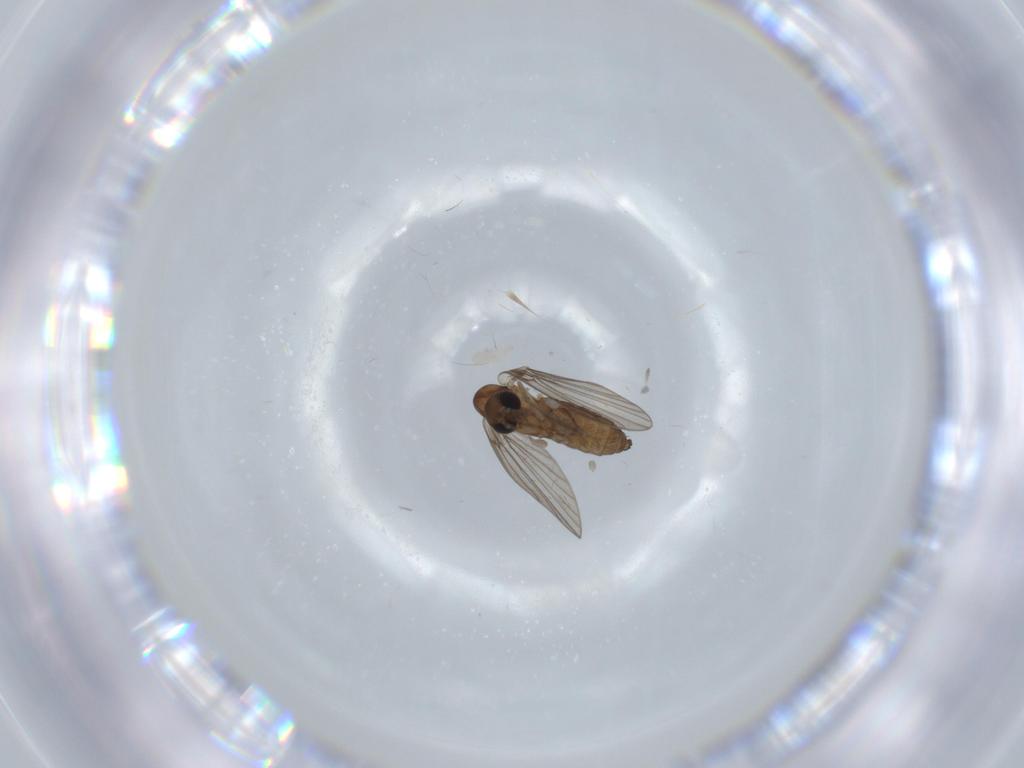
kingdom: Animalia
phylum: Arthropoda
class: Insecta
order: Diptera
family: Psychodidae
